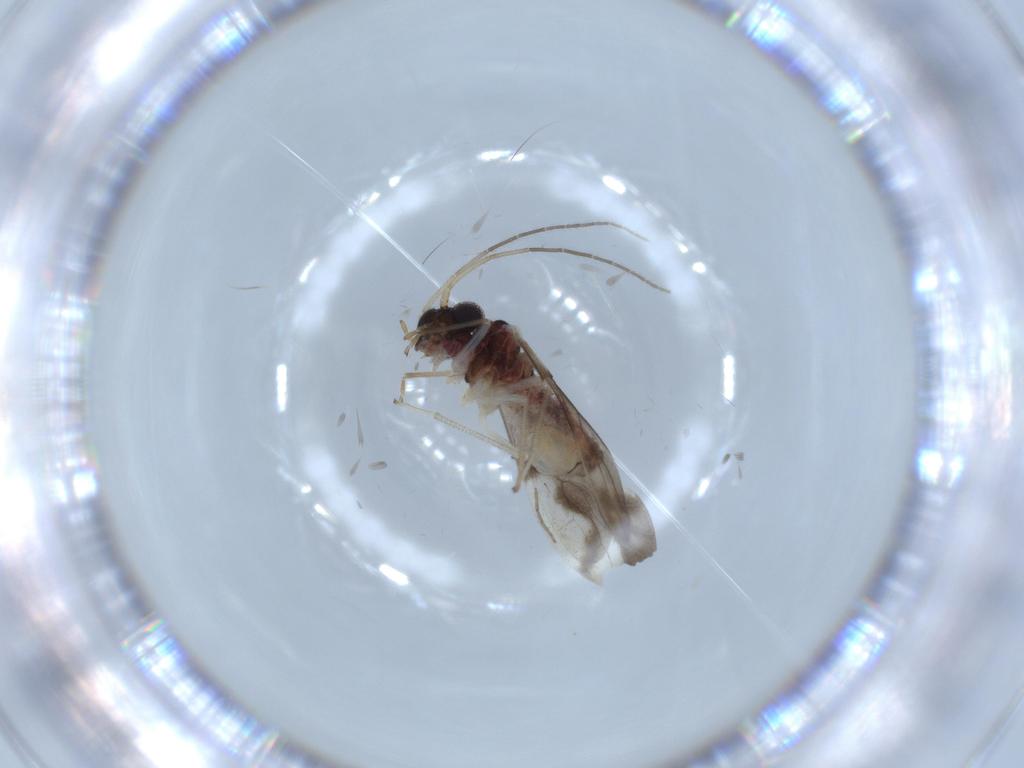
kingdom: Animalia
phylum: Arthropoda
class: Insecta
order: Psocodea
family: Caeciliusidae
